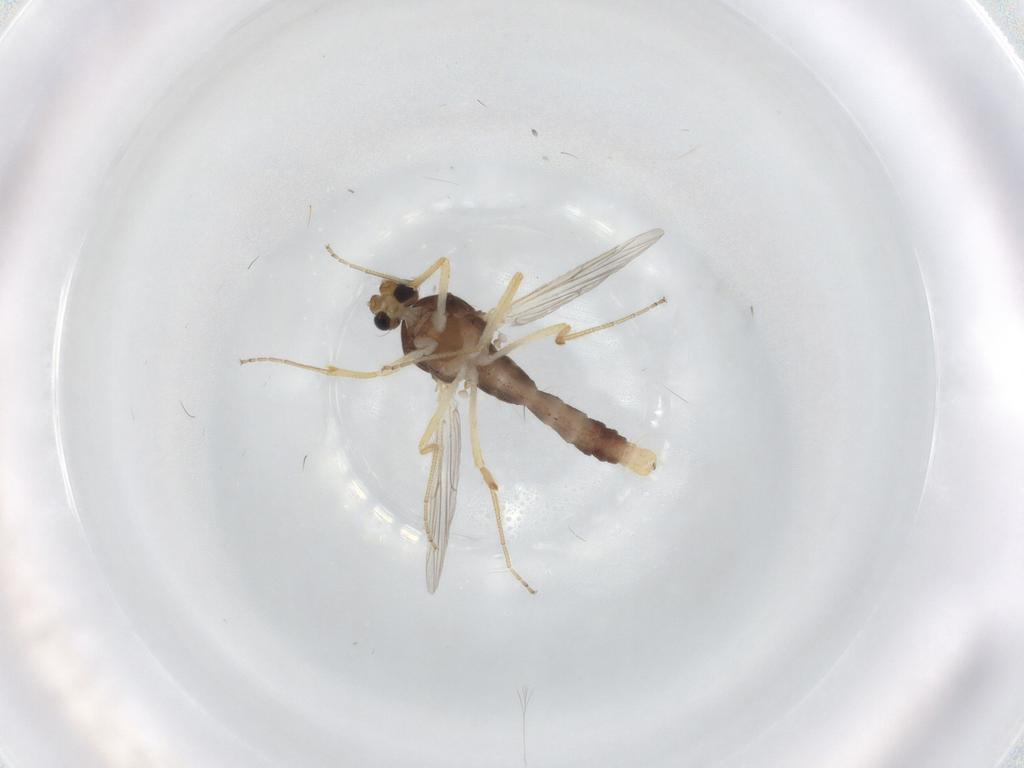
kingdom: Animalia
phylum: Arthropoda
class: Insecta
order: Diptera
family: Ceratopogonidae
